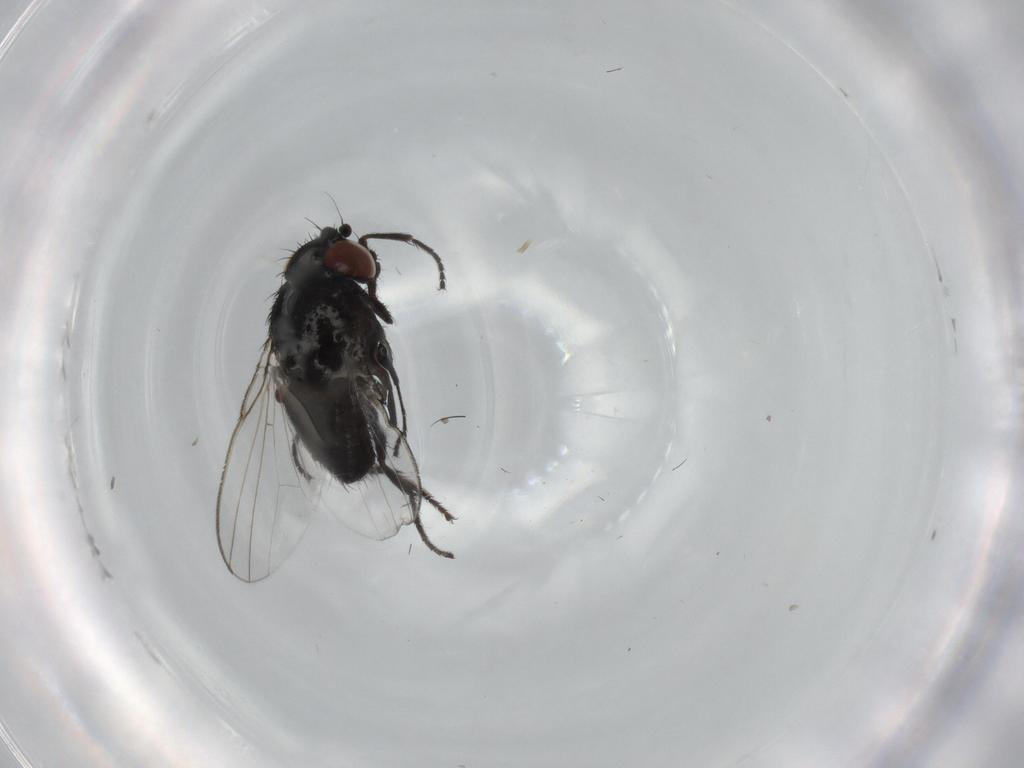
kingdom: Animalia
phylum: Arthropoda
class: Insecta
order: Diptera
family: Milichiidae
